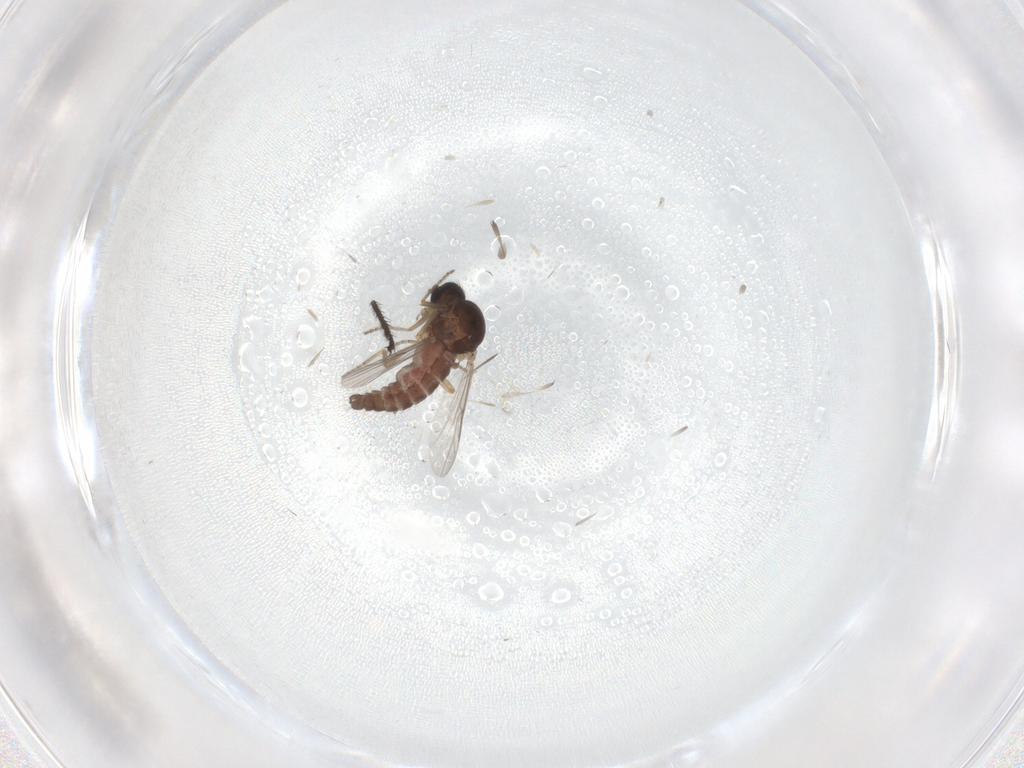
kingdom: Animalia
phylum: Arthropoda
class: Insecta
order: Diptera
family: Ceratopogonidae
